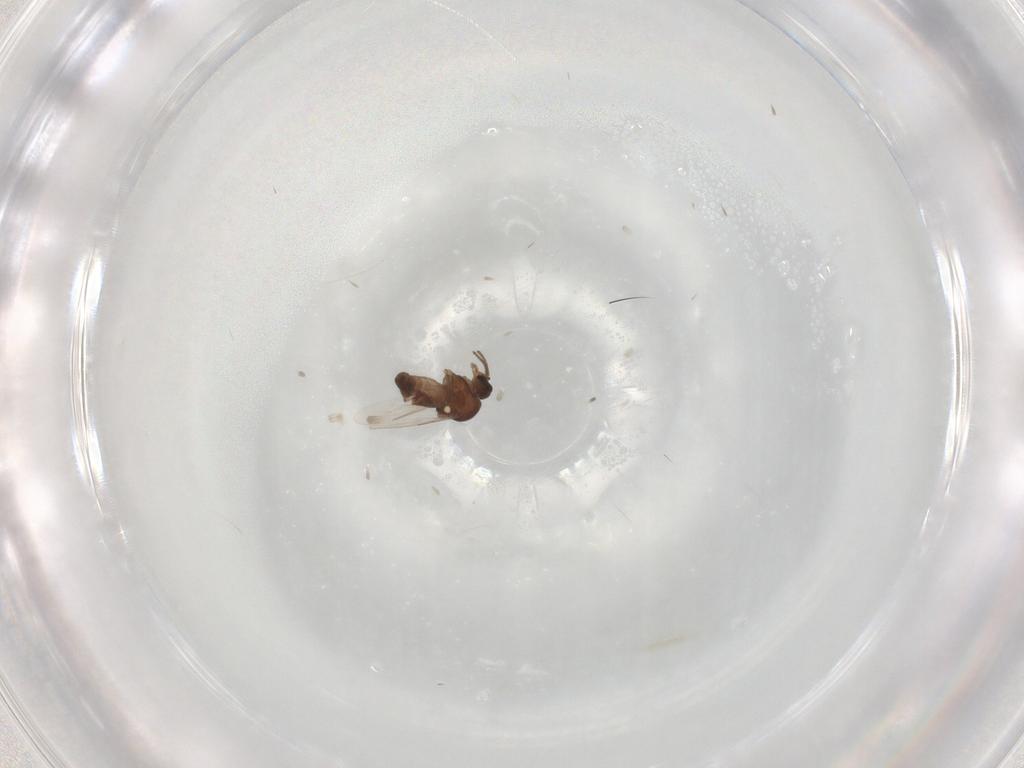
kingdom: Animalia
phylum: Arthropoda
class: Insecta
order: Diptera
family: Ceratopogonidae
